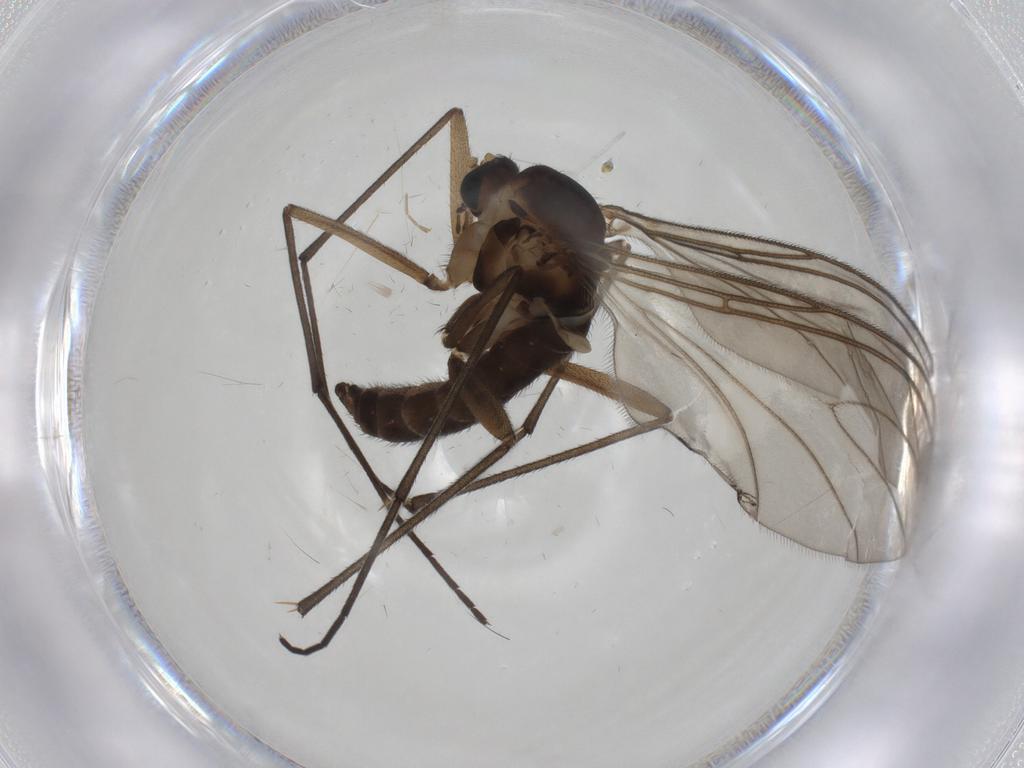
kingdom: Animalia
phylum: Arthropoda
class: Insecta
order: Diptera
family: Sciaridae
